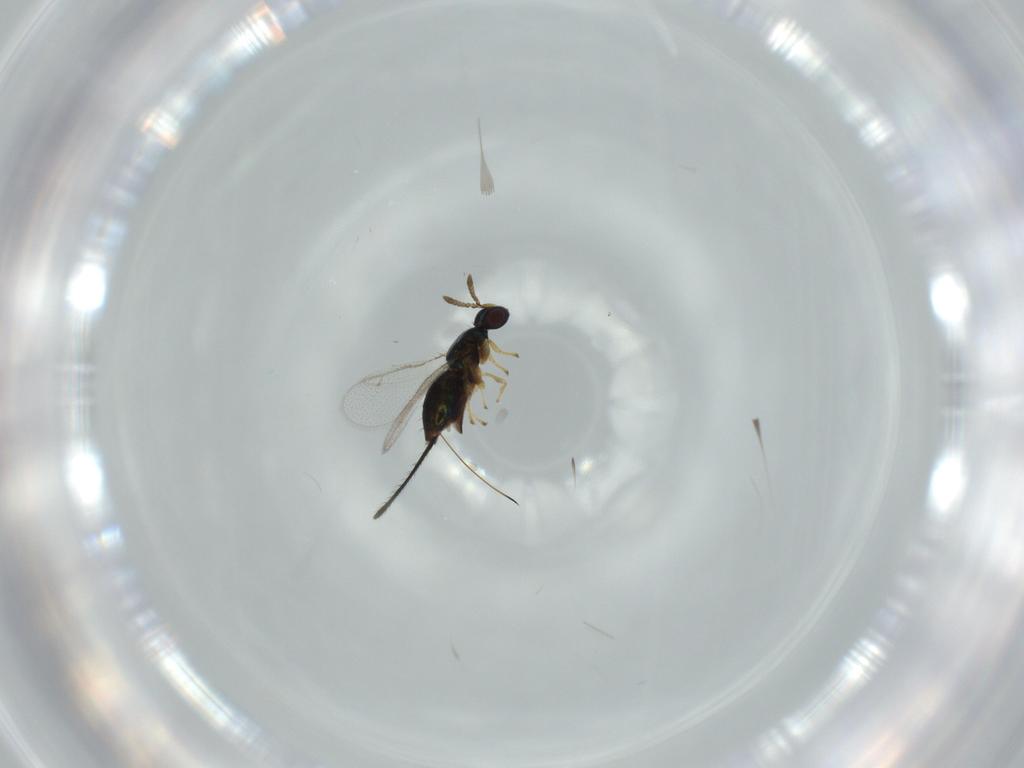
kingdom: Animalia
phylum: Arthropoda
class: Insecta
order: Hymenoptera
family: Torymidae
